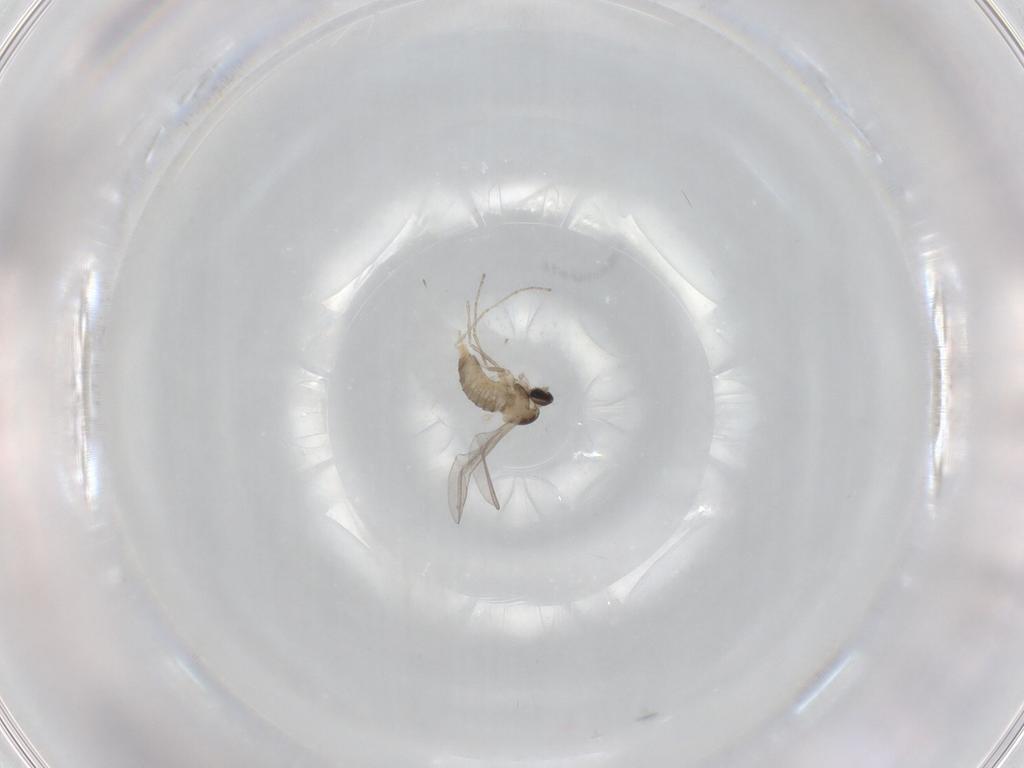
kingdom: Animalia
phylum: Arthropoda
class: Insecta
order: Diptera
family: Cecidomyiidae
